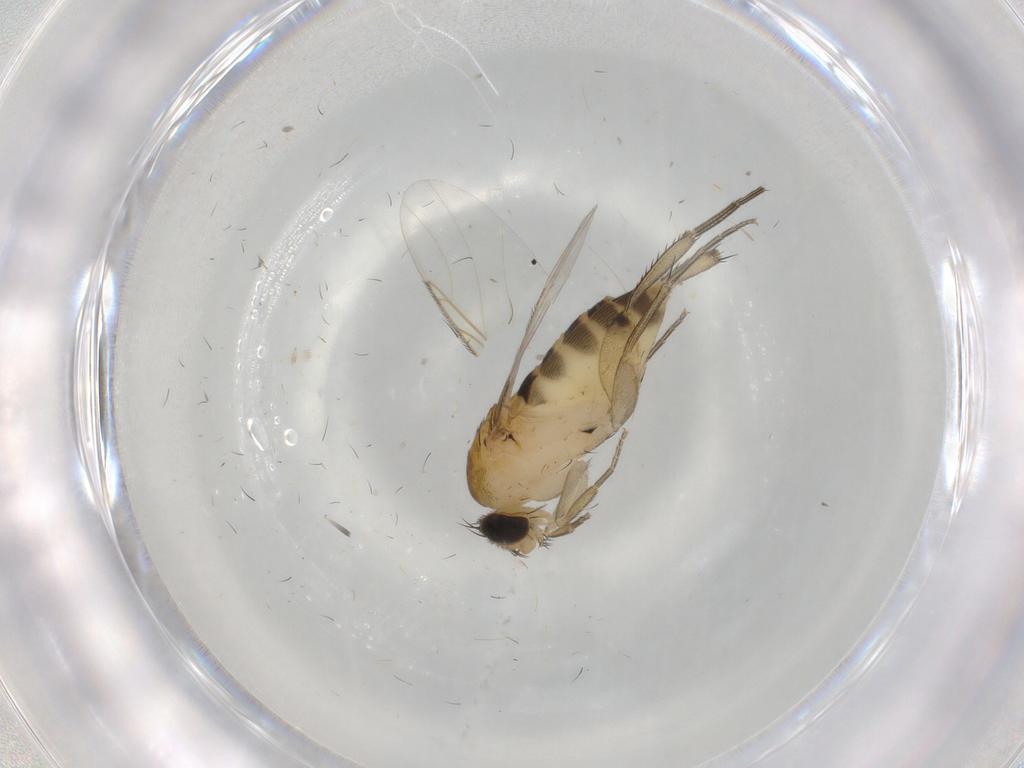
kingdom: Animalia
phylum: Arthropoda
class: Insecta
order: Diptera
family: Phoridae
